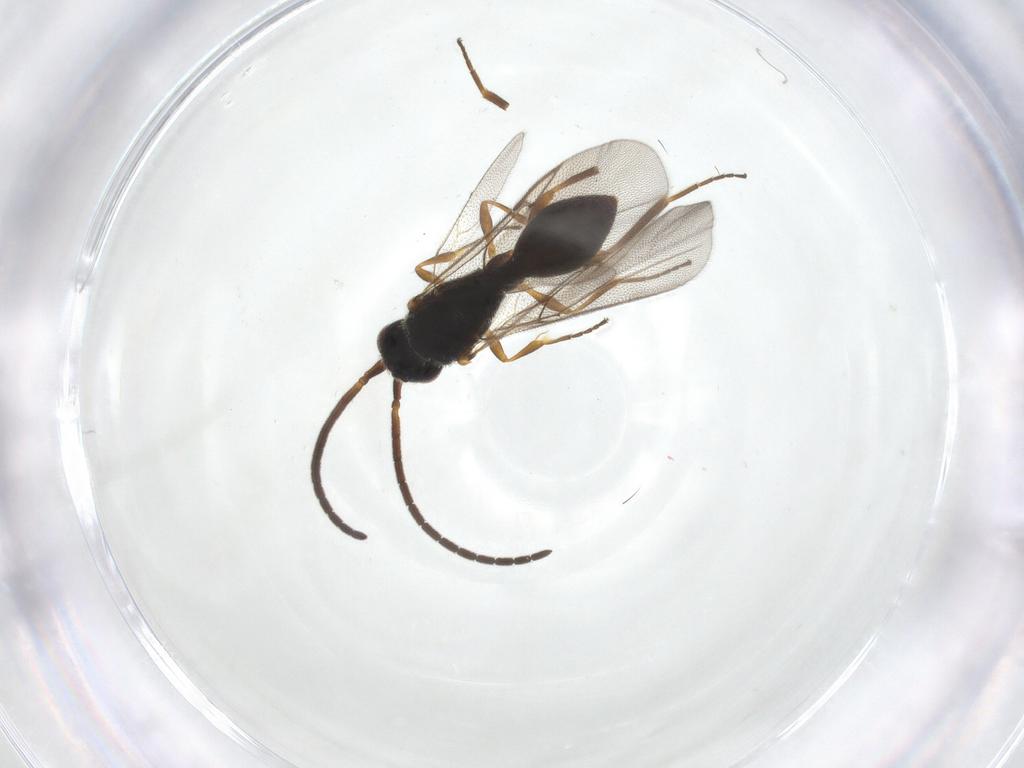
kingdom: Animalia
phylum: Arthropoda
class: Insecta
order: Hymenoptera
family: Diapriidae
